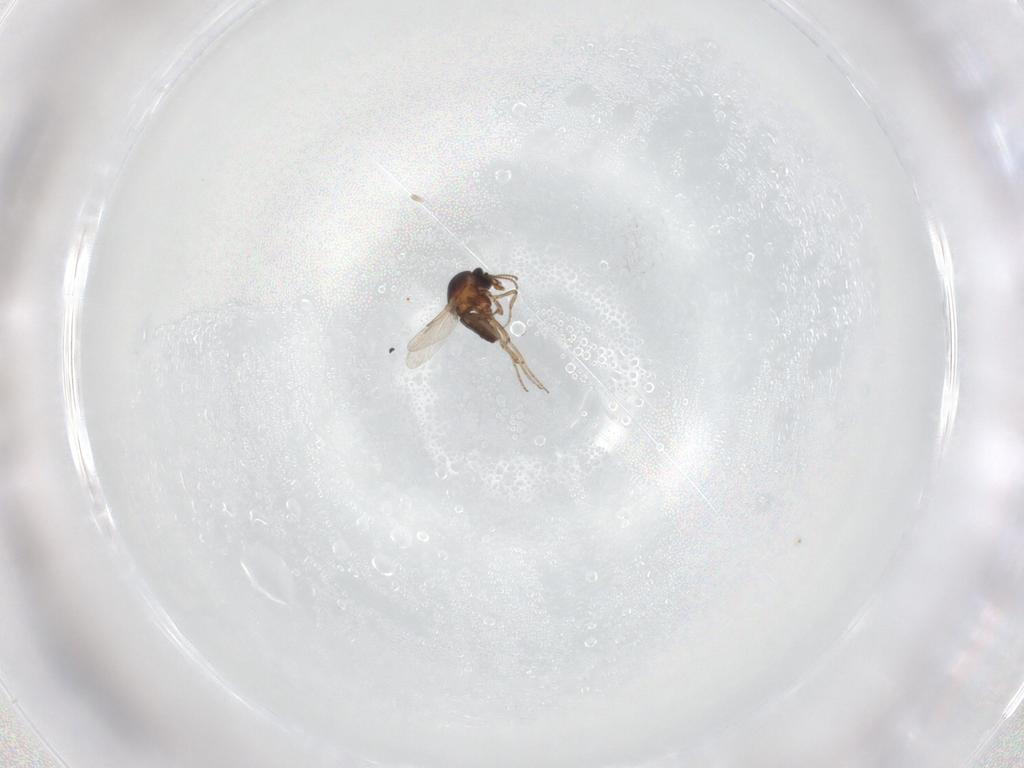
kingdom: Animalia
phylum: Arthropoda
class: Insecta
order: Diptera
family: Ceratopogonidae
